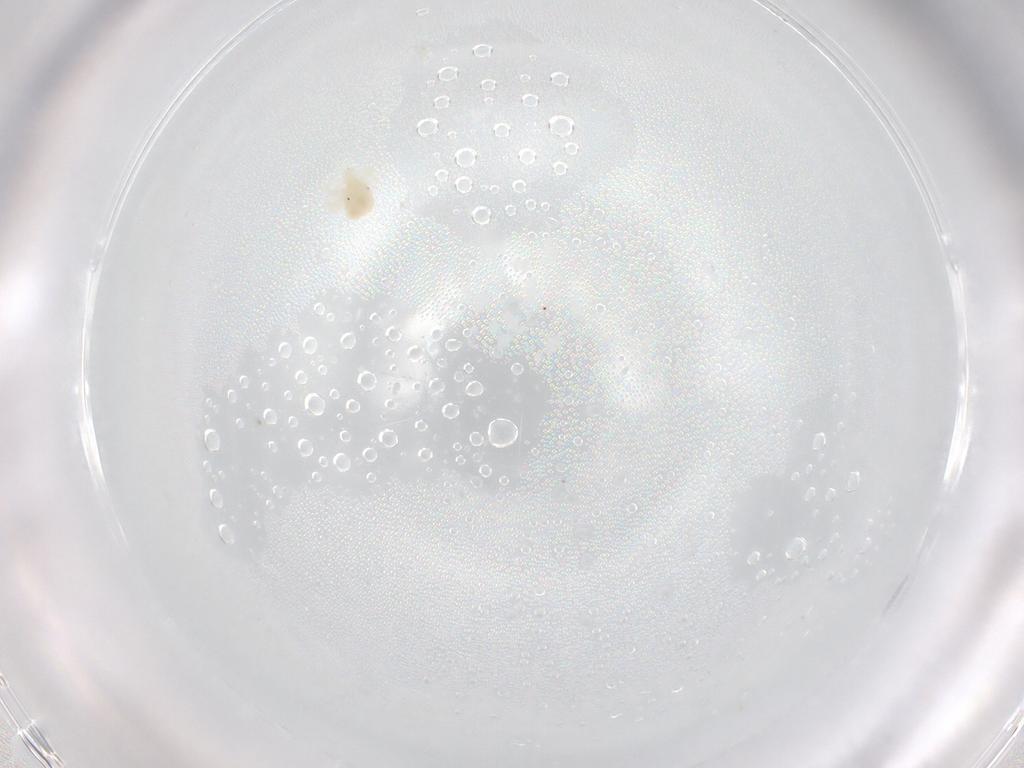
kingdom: Animalia
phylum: Arthropoda
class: Arachnida
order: Trombidiformes
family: Anystidae
